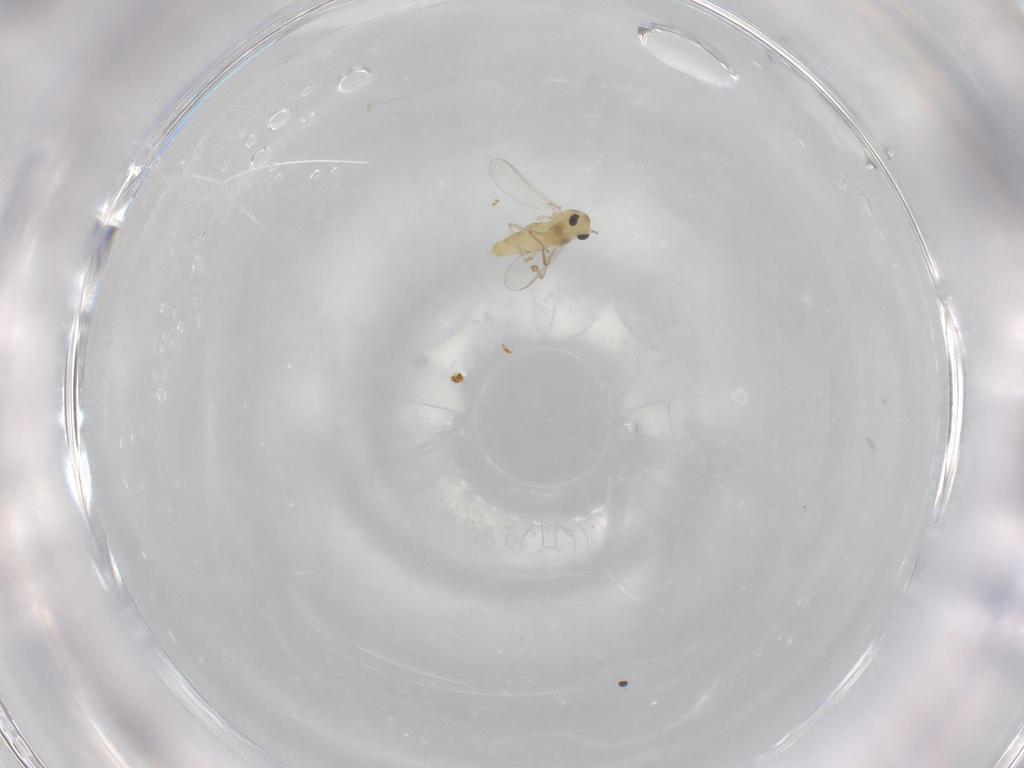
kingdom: Animalia
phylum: Arthropoda
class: Insecta
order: Diptera
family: Chironomidae
